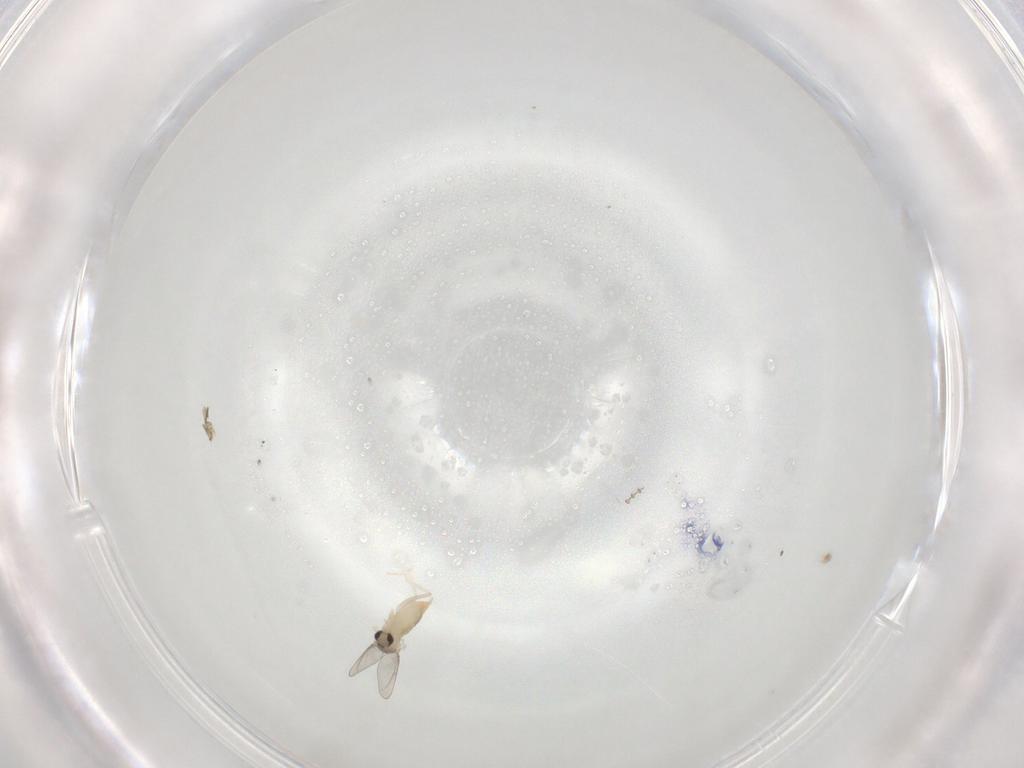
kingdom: Animalia
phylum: Arthropoda
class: Insecta
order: Diptera
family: Cecidomyiidae
